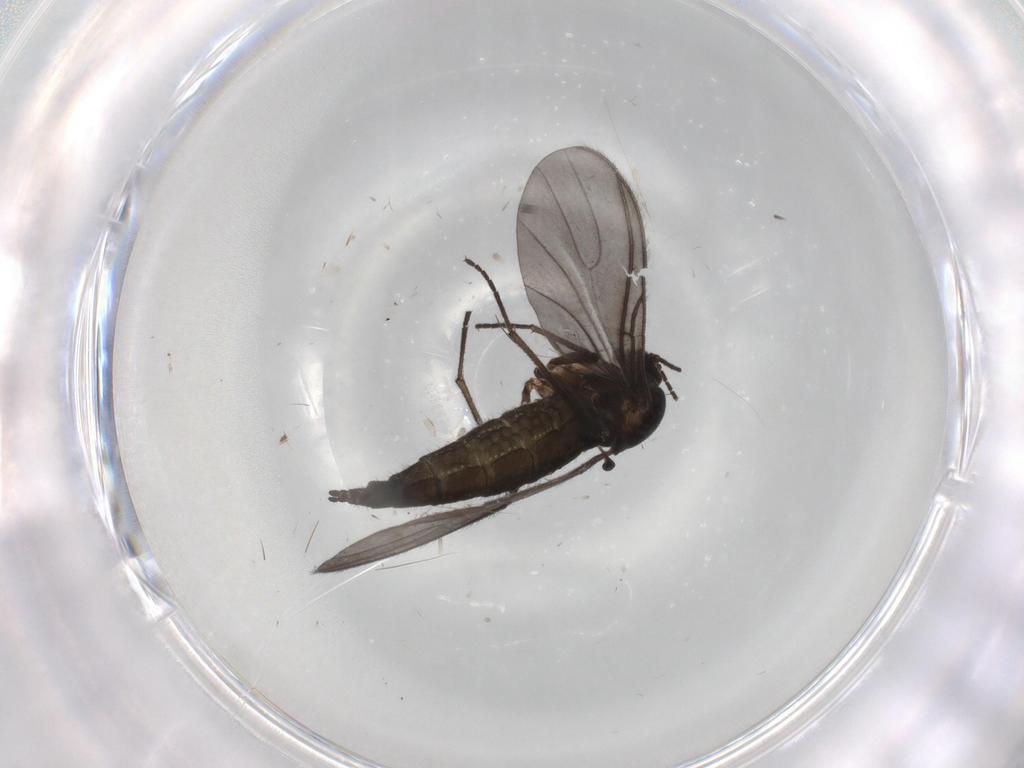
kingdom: Animalia
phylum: Arthropoda
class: Insecta
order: Diptera
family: Sciaridae
